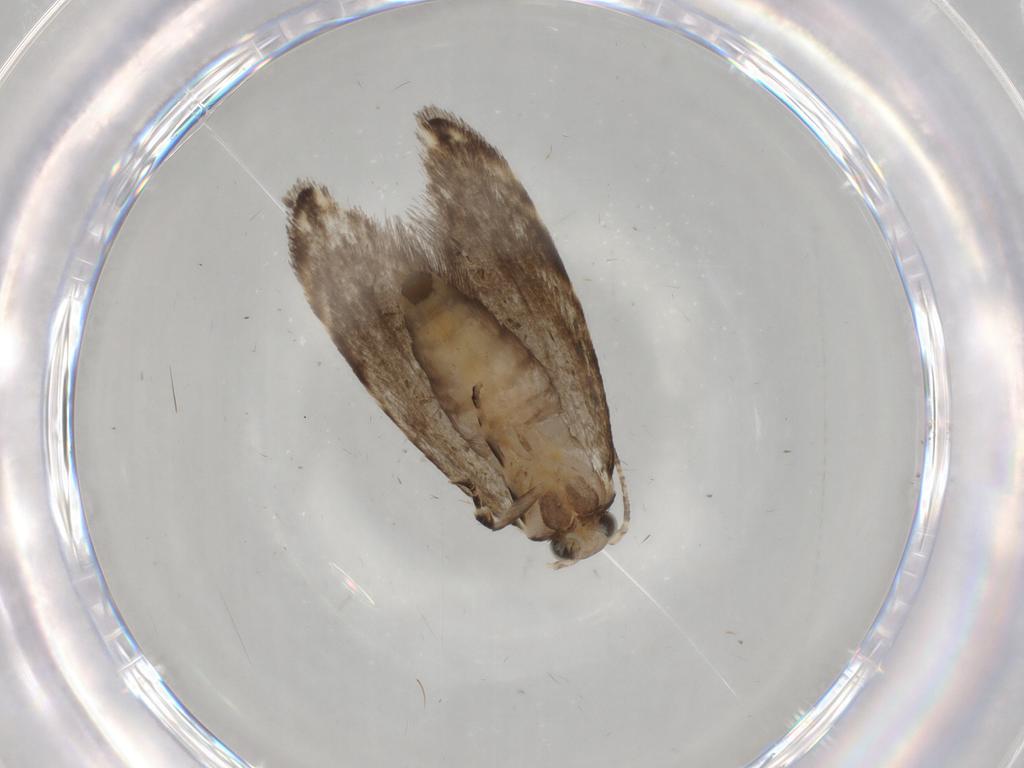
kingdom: Animalia
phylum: Arthropoda
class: Insecta
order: Lepidoptera
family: Tineidae
